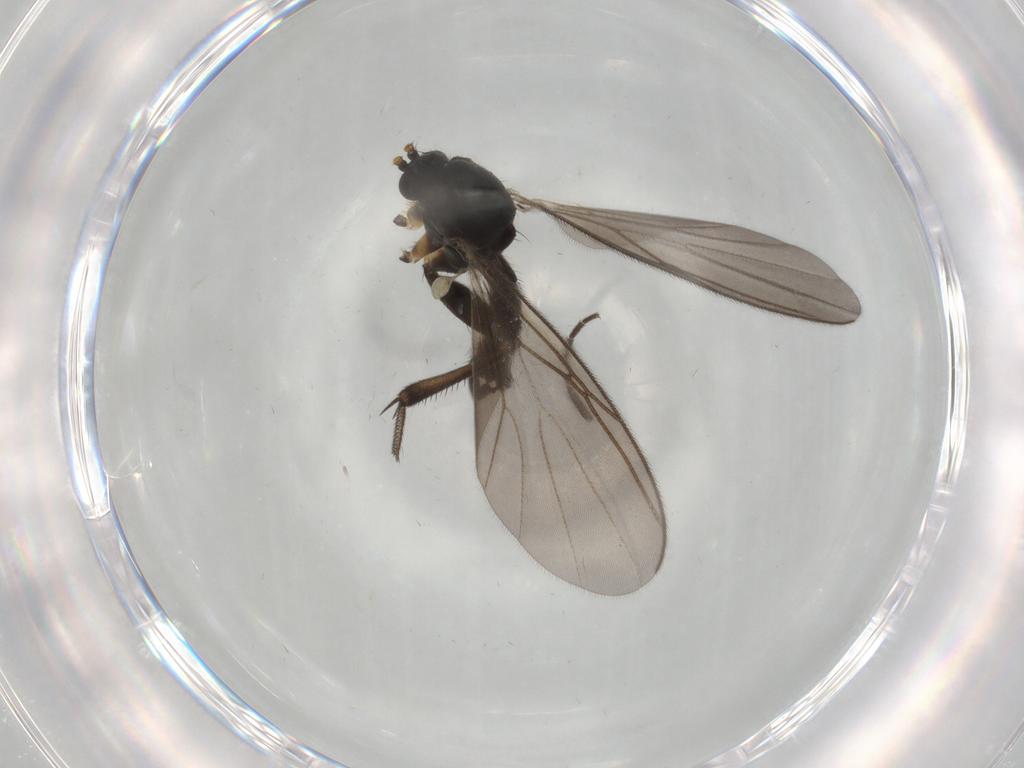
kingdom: Animalia
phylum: Arthropoda
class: Insecta
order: Diptera
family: Mycetophilidae
